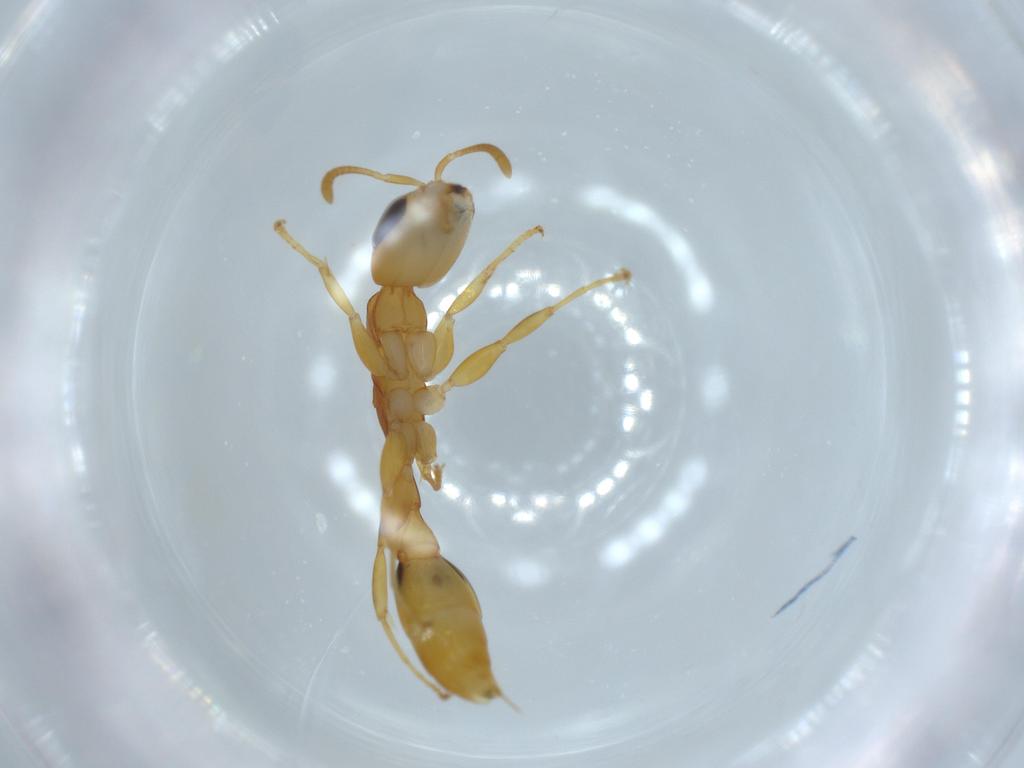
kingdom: Animalia
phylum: Arthropoda
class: Insecta
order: Hymenoptera
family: Formicidae
